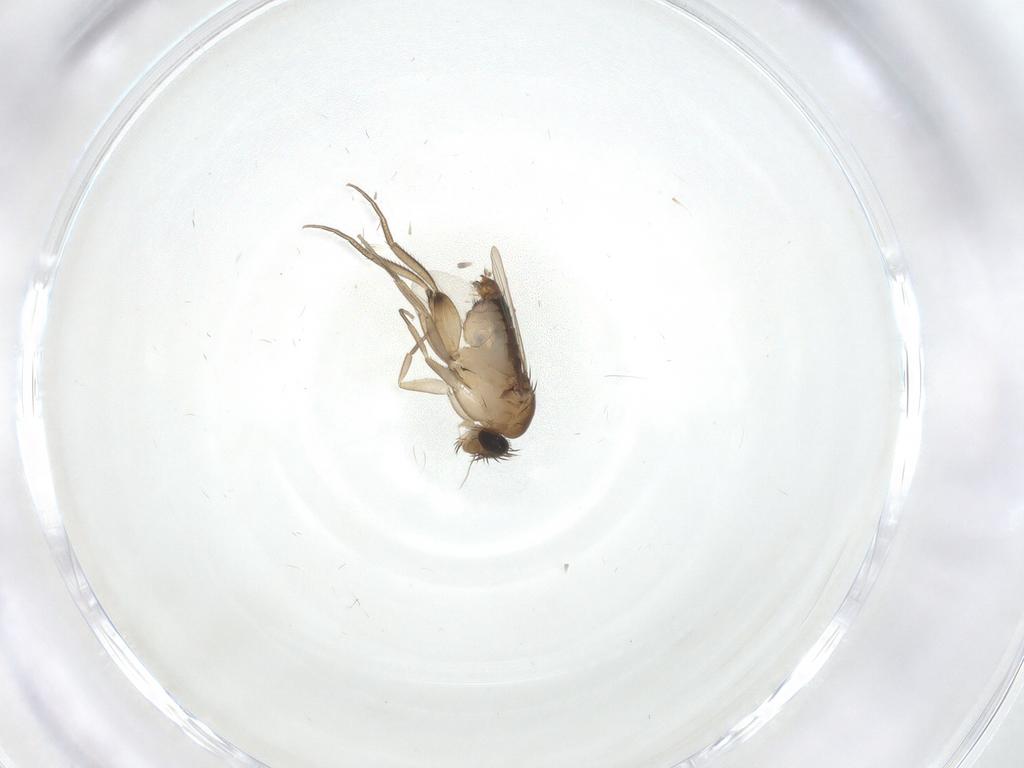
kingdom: Animalia
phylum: Arthropoda
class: Insecta
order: Diptera
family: Phoridae
